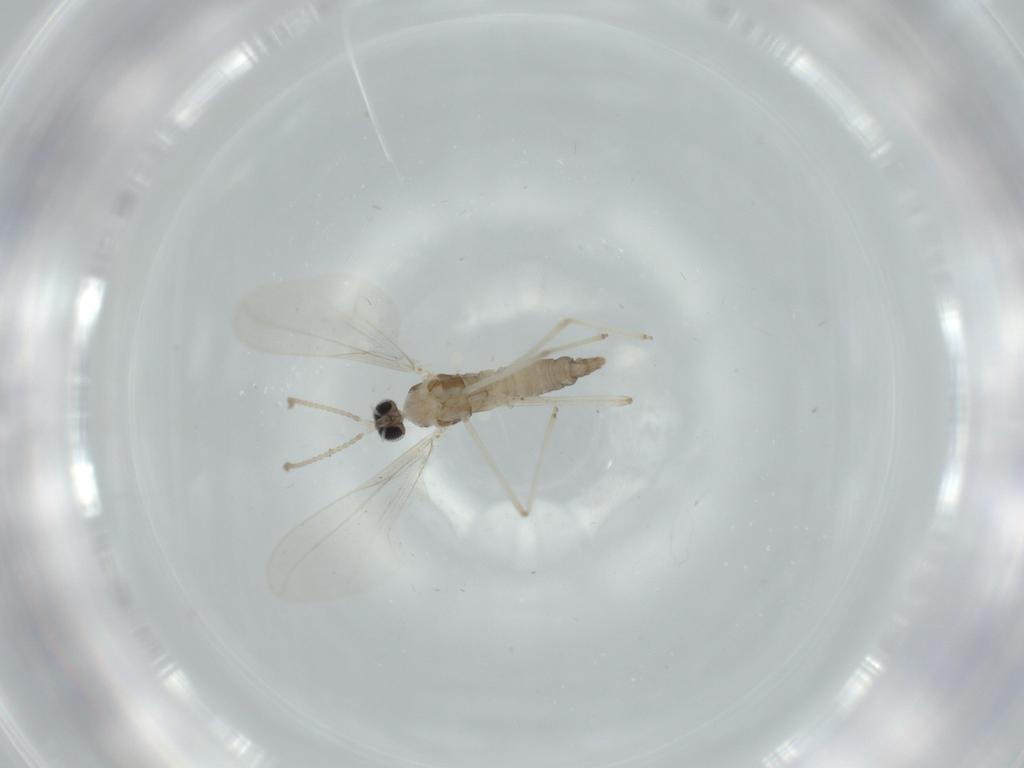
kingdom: Animalia
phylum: Arthropoda
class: Insecta
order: Diptera
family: Cecidomyiidae
